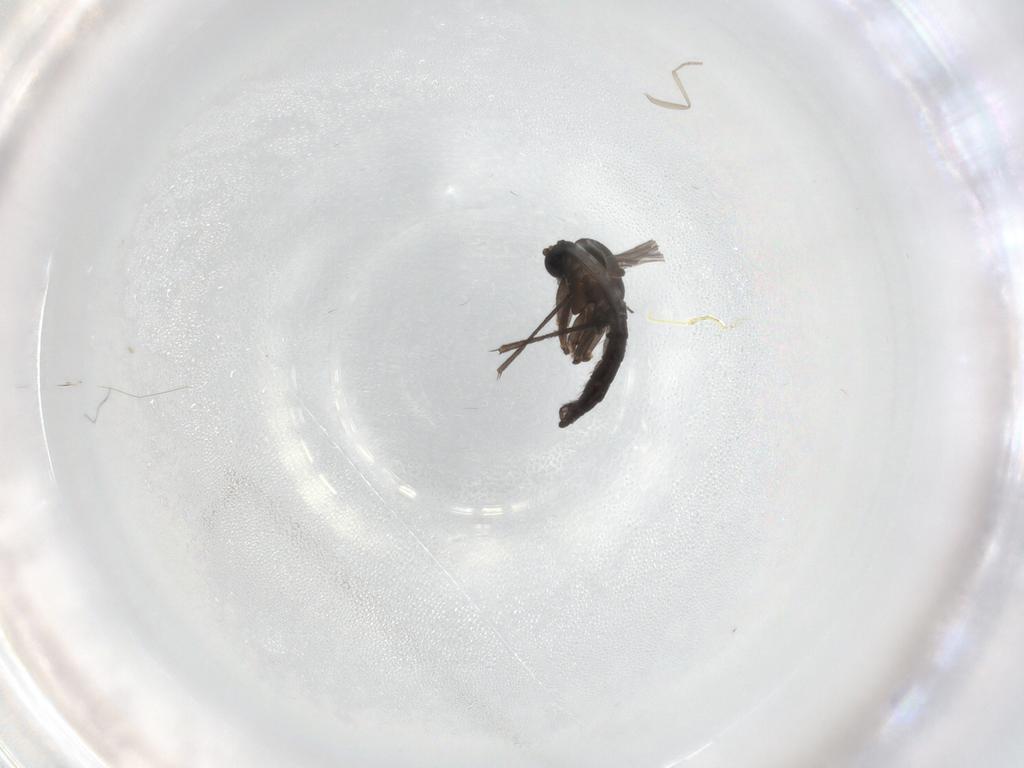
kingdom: Animalia
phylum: Arthropoda
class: Insecta
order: Diptera
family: Sciaridae
